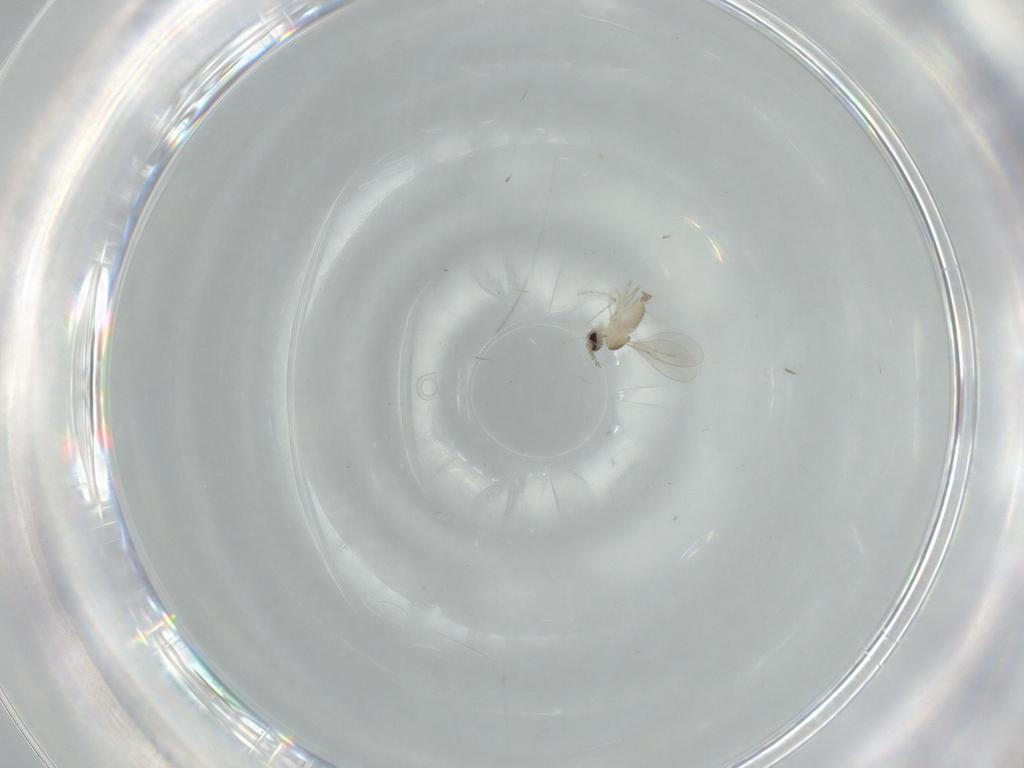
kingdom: Animalia
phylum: Arthropoda
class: Insecta
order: Diptera
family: Cecidomyiidae
